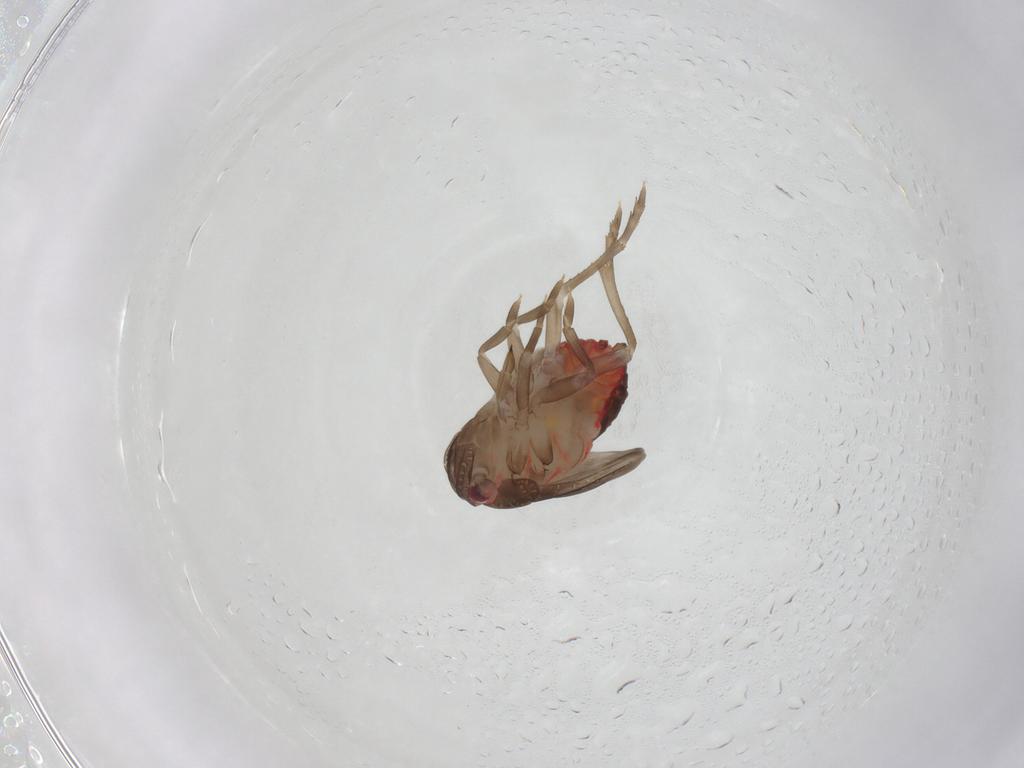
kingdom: Animalia
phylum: Arthropoda
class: Insecta
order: Hemiptera
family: Derbidae
